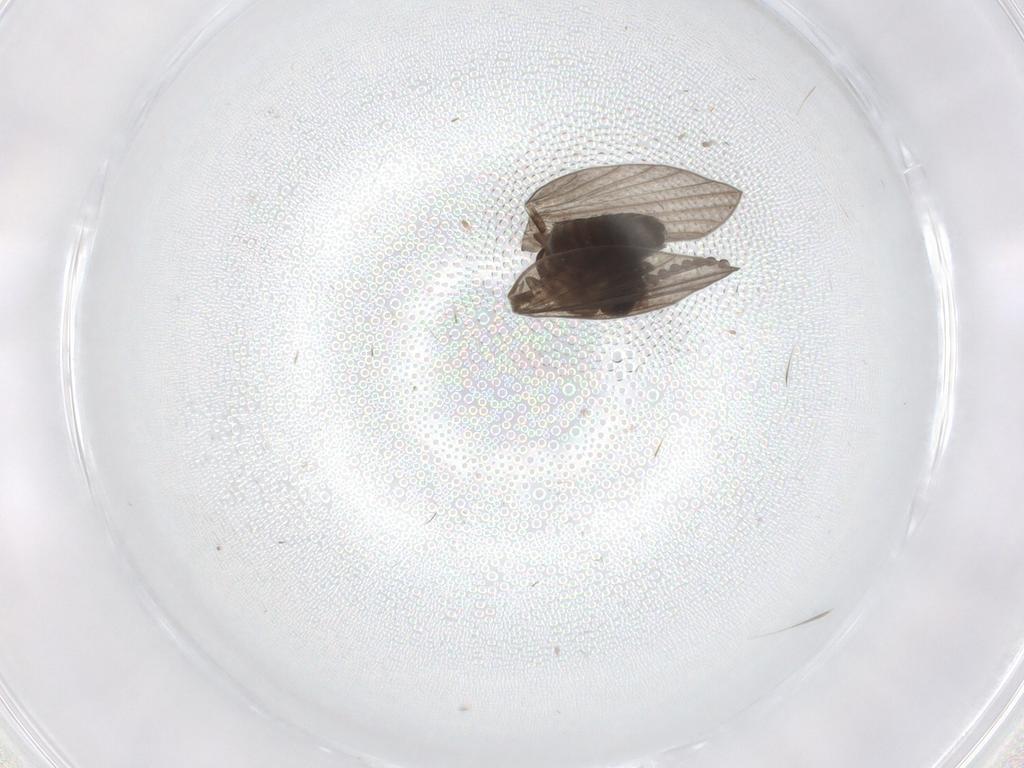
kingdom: Animalia
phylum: Arthropoda
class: Insecta
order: Diptera
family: Psychodidae
